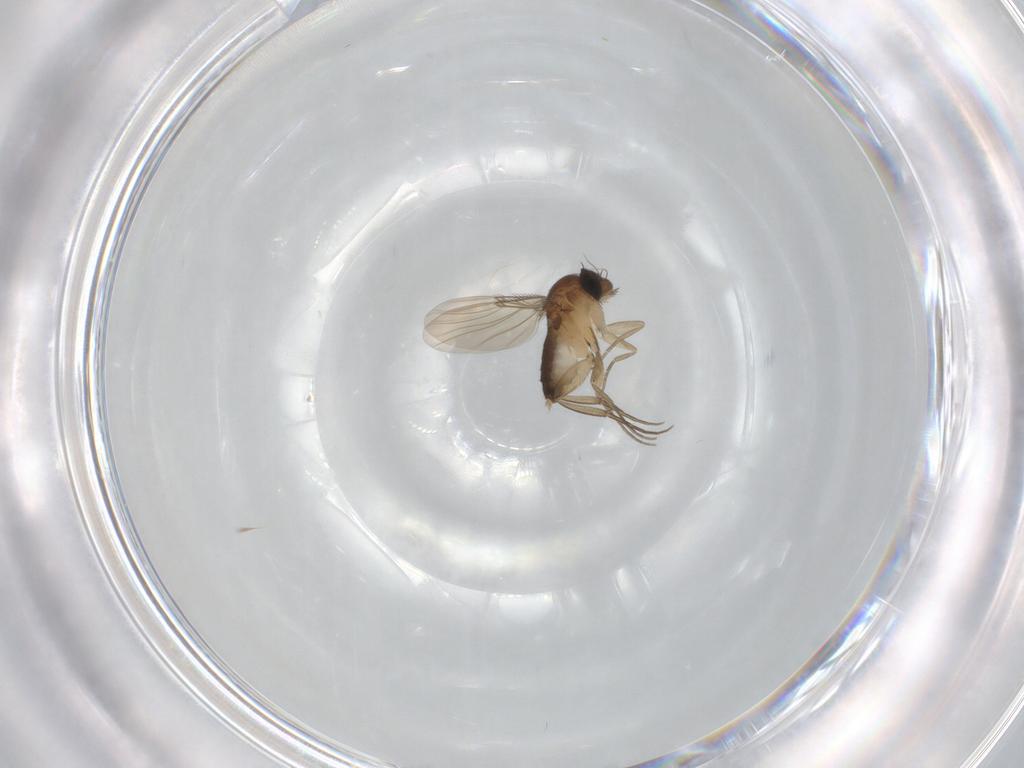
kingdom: Animalia
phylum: Arthropoda
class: Insecta
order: Diptera
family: Phoridae
